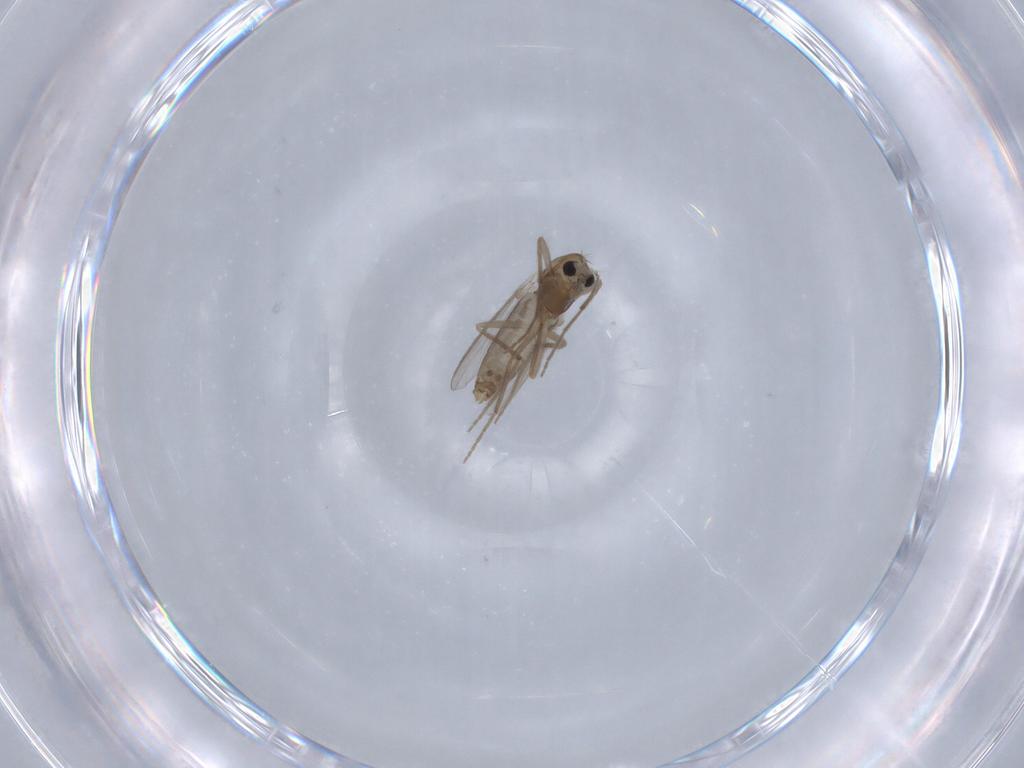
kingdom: Animalia
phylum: Arthropoda
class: Insecta
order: Diptera
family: Chironomidae
